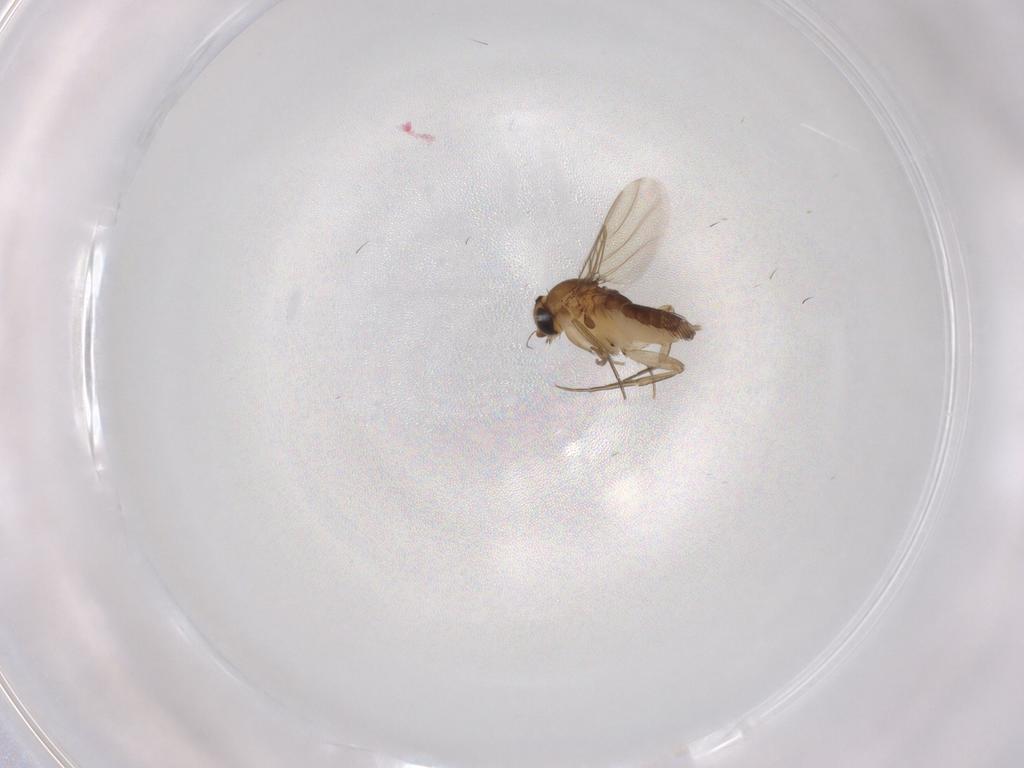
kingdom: Animalia
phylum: Arthropoda
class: Insecta
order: Diptera
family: Phoridae
